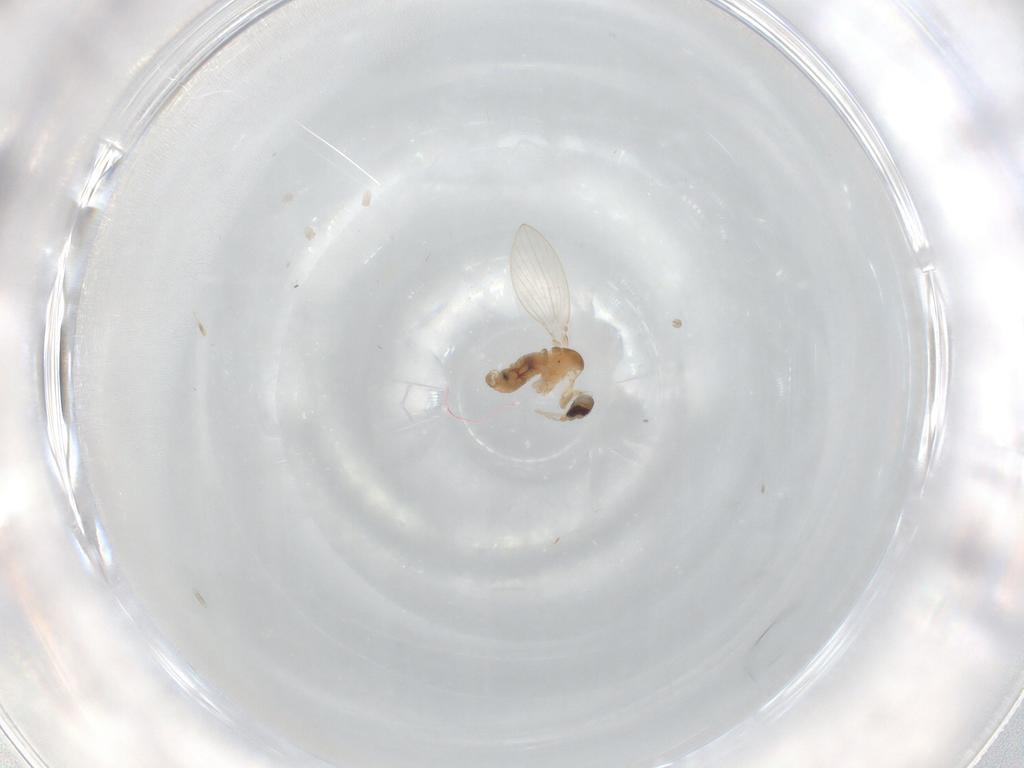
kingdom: Animalia
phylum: Arthropoda
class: Insecta
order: Diptera
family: Psychodidae
